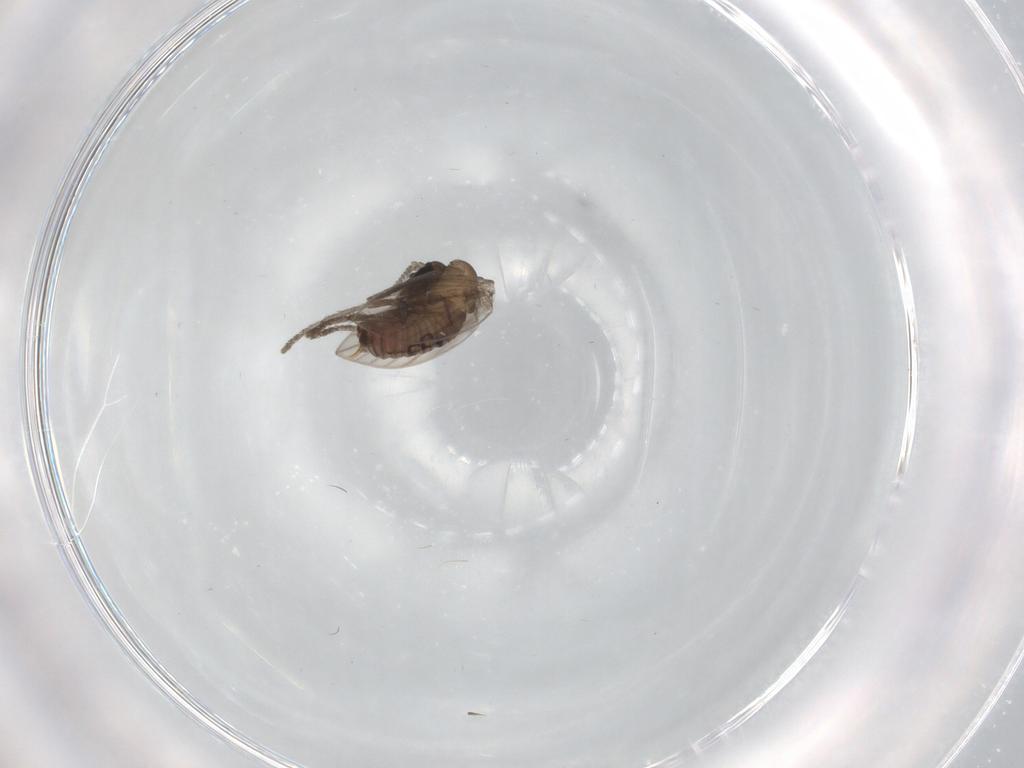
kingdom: Animalia
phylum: Arthropoda
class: Insecta
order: Diptera
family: Psychodidae
